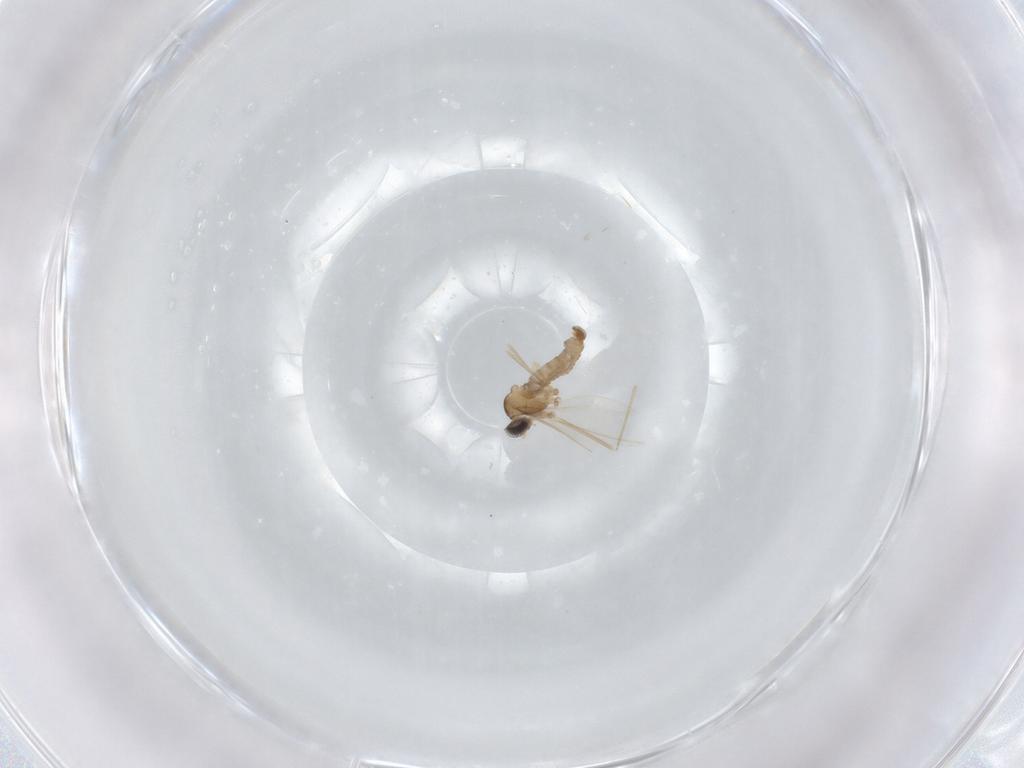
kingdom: Animalia
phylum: Arthropoda
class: Insecta
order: Diptera
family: Cecidomyiidae
